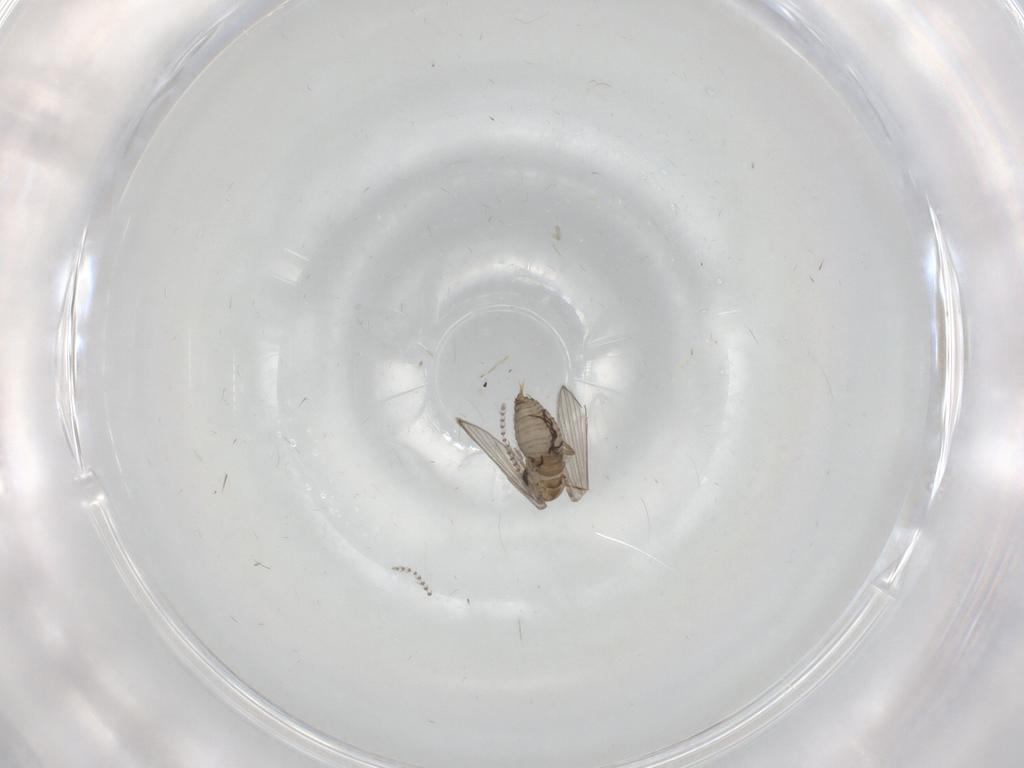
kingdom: Animalia
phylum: Arthropoda
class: Insecta
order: Diptera
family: Psychodidae
